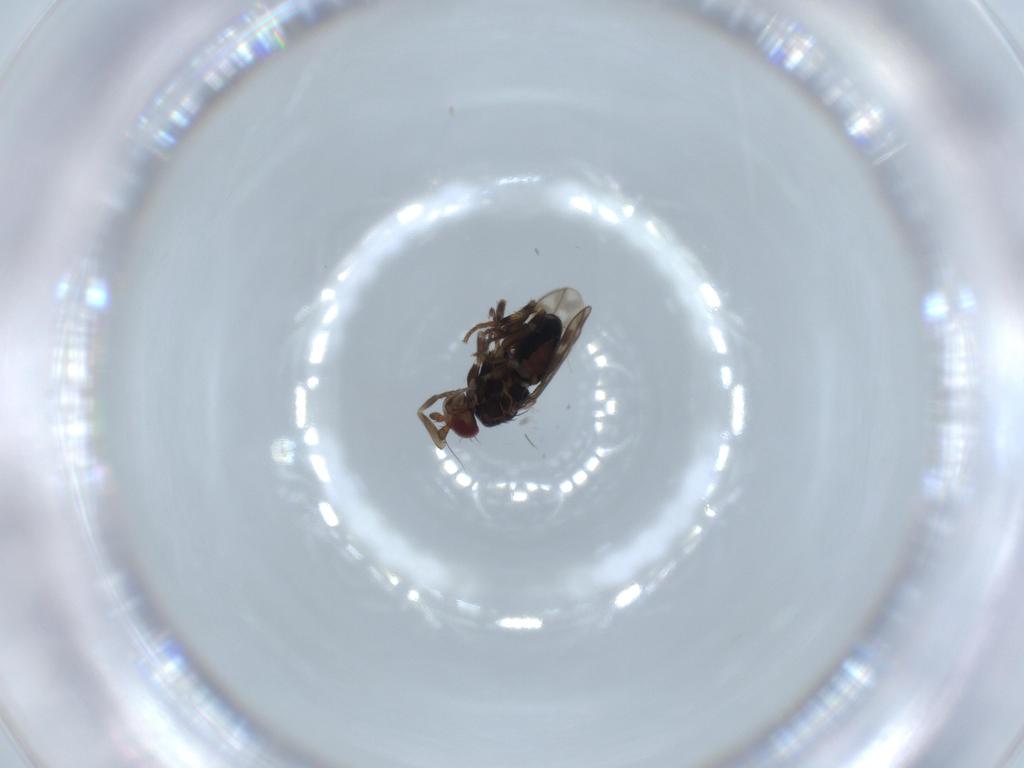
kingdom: Animalia
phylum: Arthropoda
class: Insecta
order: Diptera
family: Sphaeroceridae
